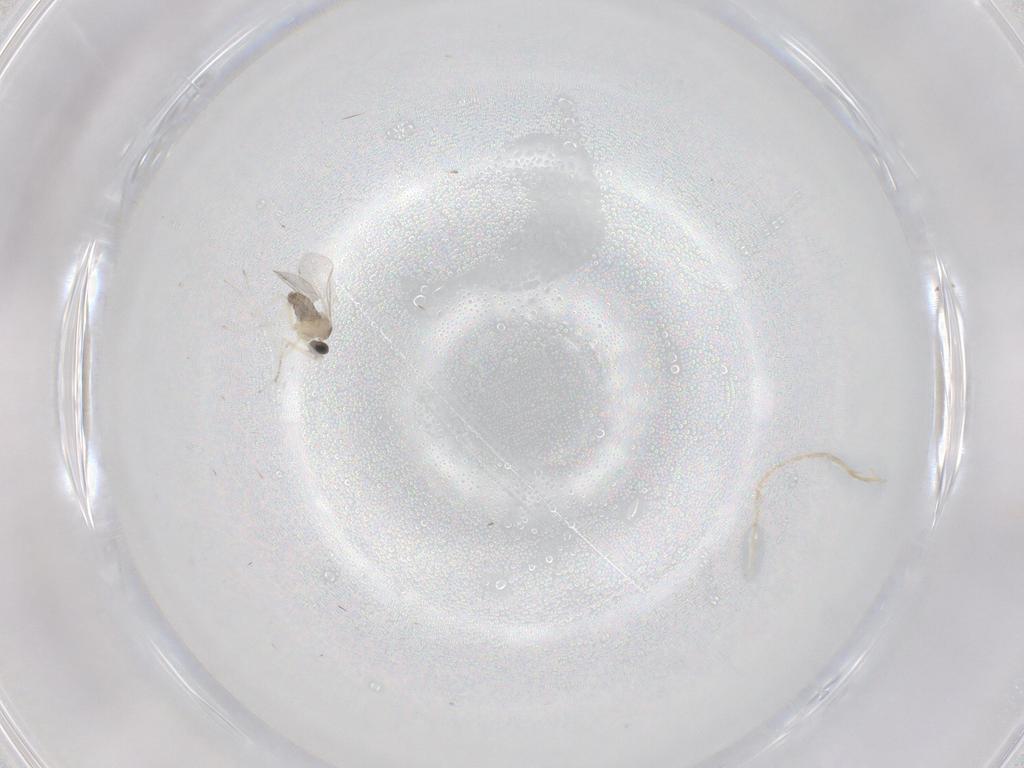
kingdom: Animalia
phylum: Arthropoda
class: Insecta
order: Diptera
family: Cecidomyiidae
